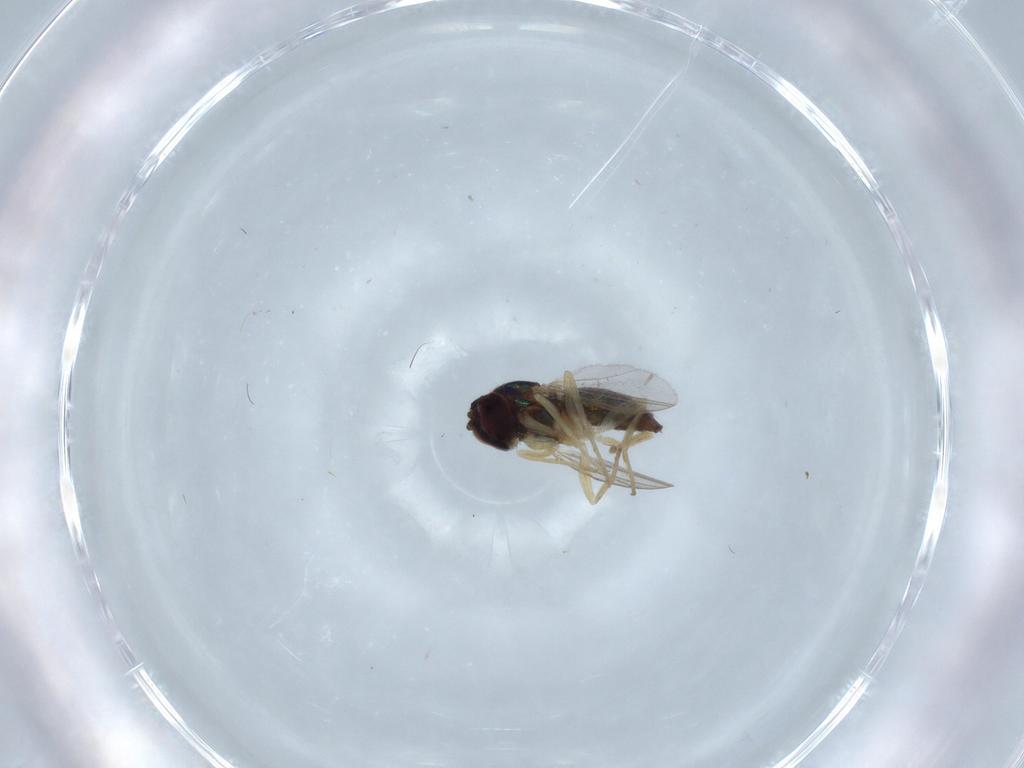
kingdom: Animalia
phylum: Arthropoda
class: Insecta
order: Diptera
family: Dolichopodidae
